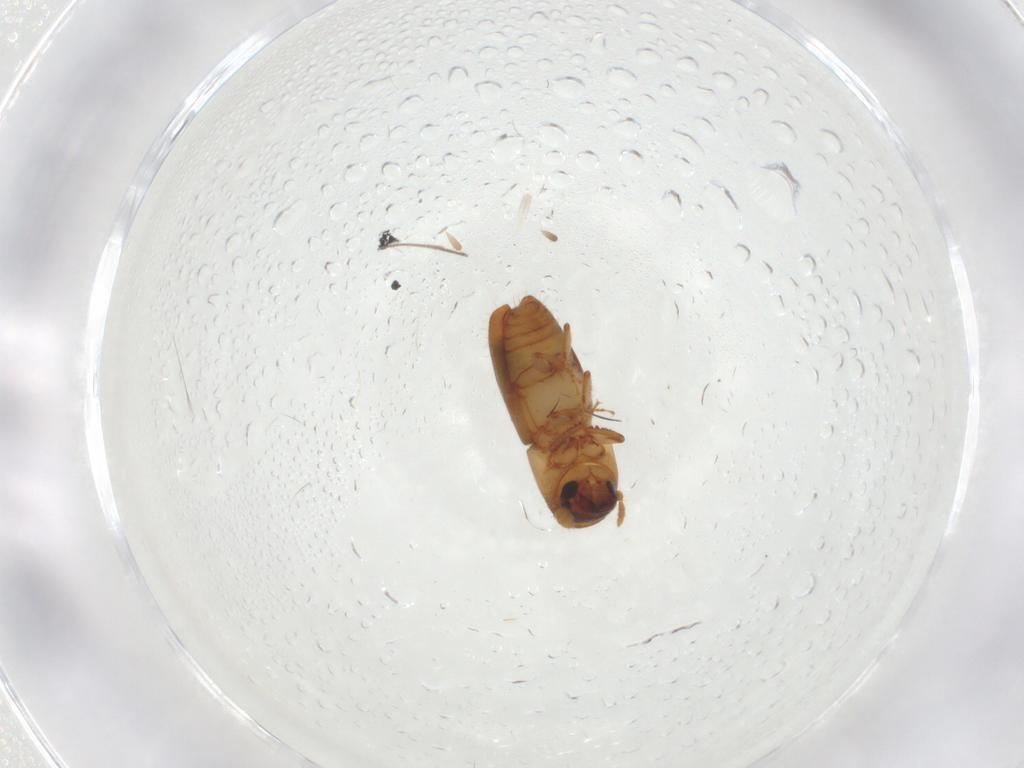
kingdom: Animalia
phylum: Arthropoda
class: Insecta
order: Coleoptera
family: Curculionidae
